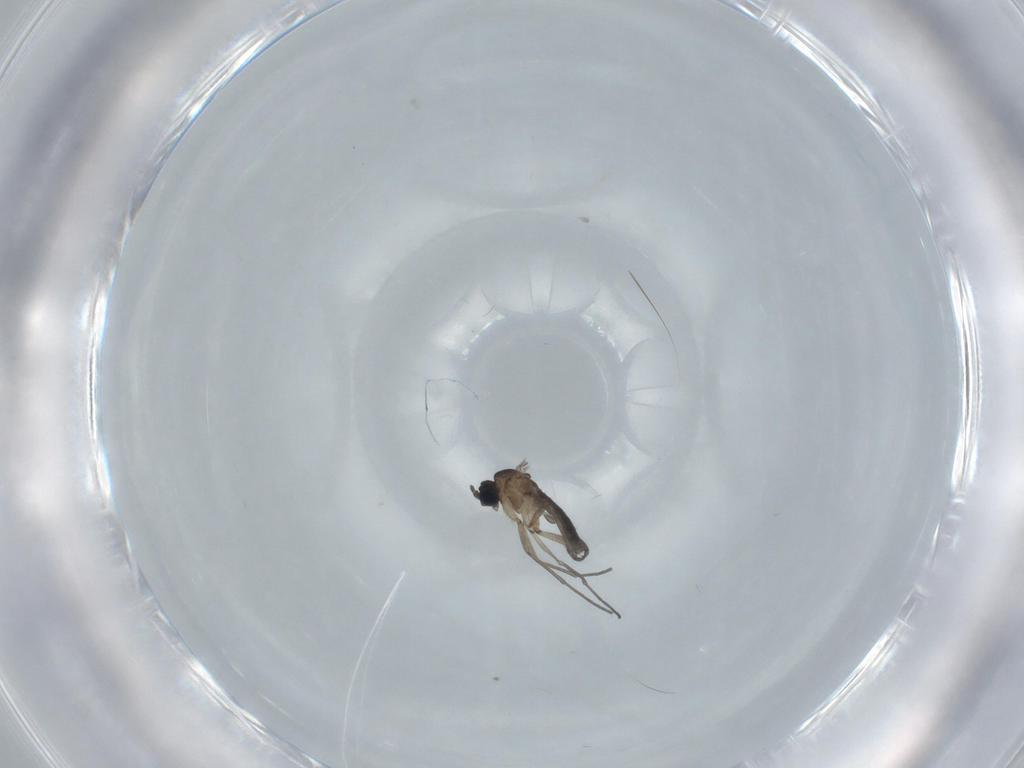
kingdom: Animalia
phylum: Arthropoda
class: Insecta
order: Diptera
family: Sciaridae
